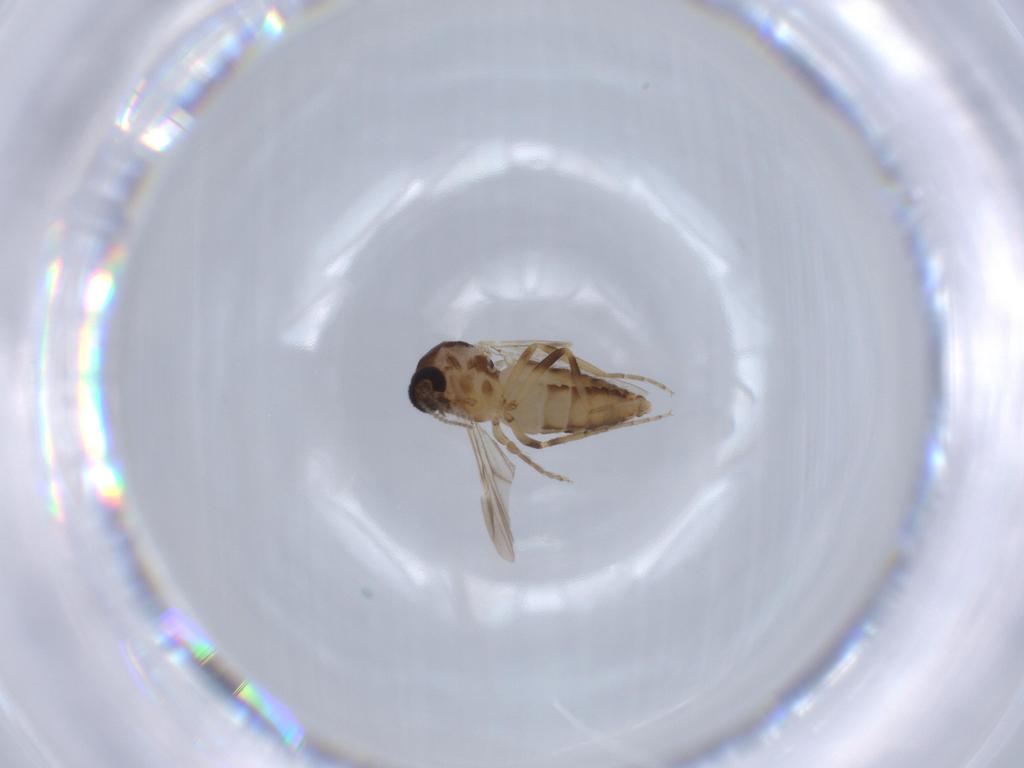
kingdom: Animalia
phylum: Arthropoda
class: Insecta
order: Diptera
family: Ceratopogonidae
